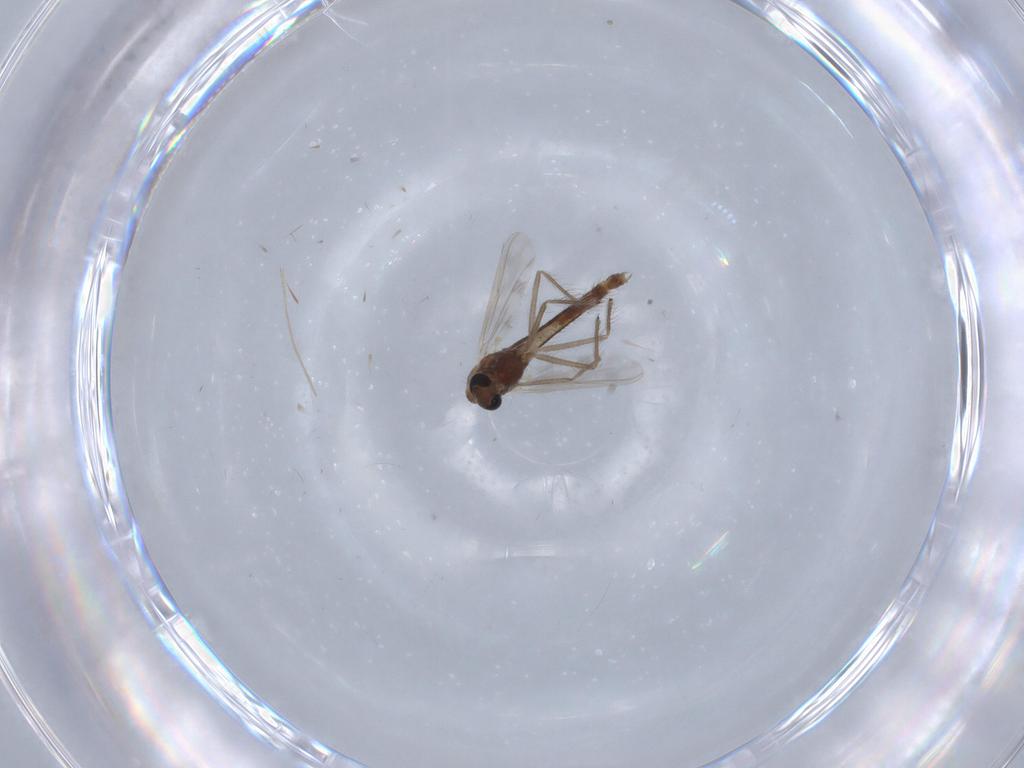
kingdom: Animalia
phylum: Arthropoda
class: Insecta
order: Diptera
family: Chironomidae
